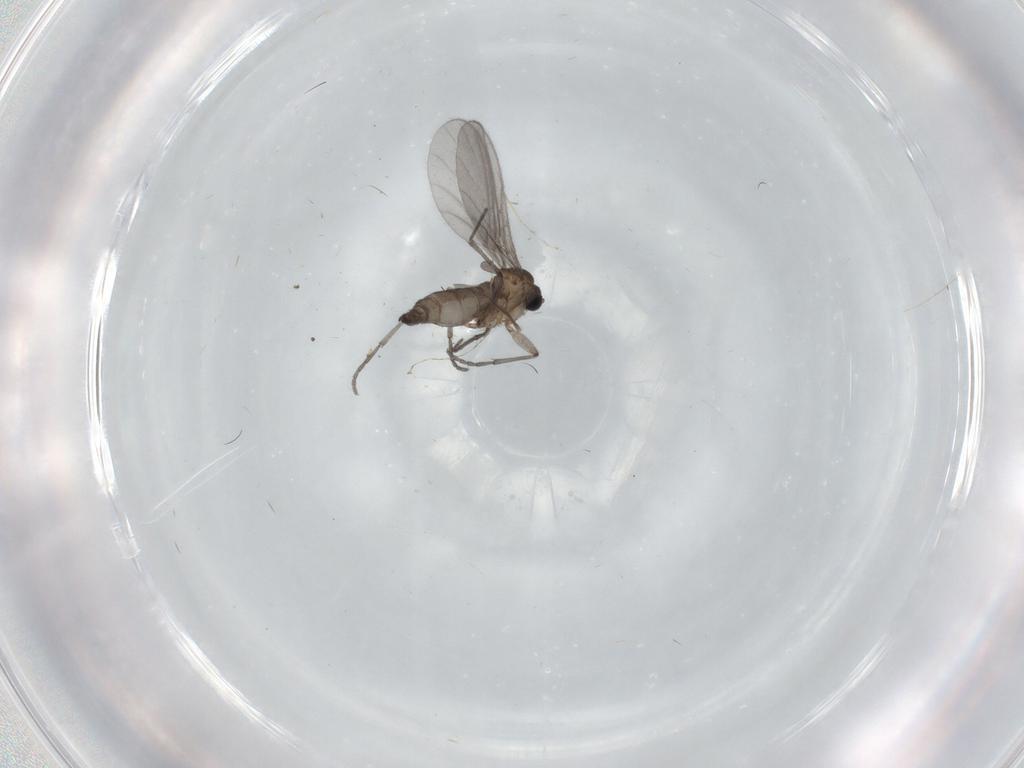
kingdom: Animalia
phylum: Arthropoda
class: Insecta
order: Diptera
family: Sciaridae
